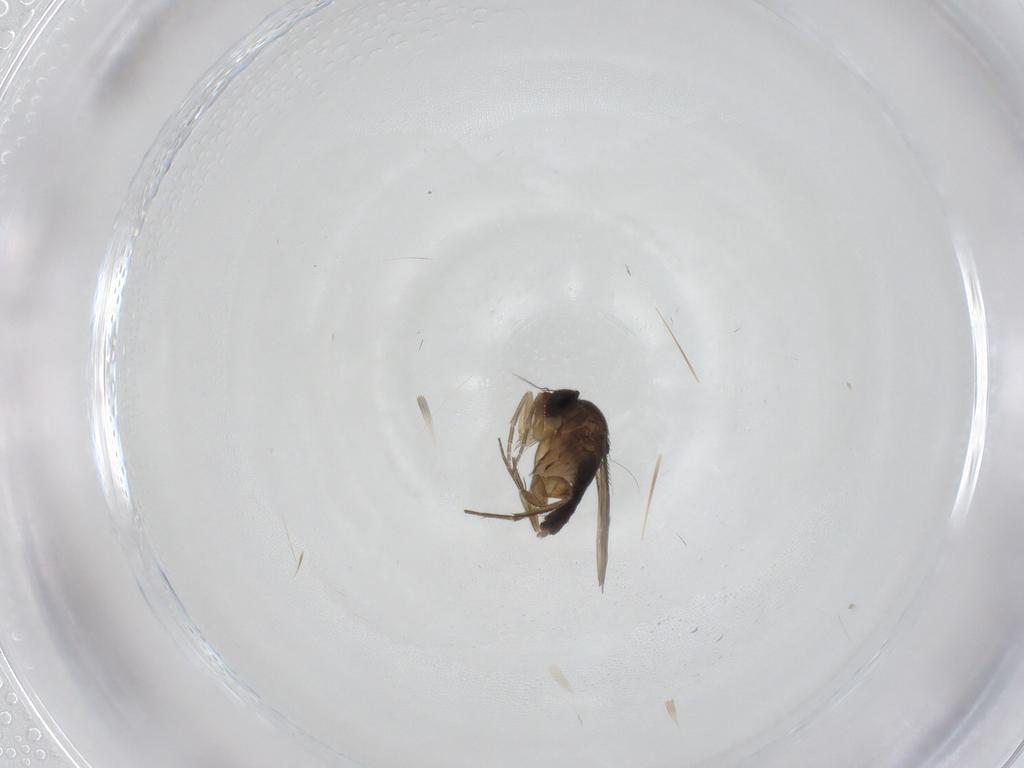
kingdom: Animalia
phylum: Arthropoda
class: Insecta
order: Diptera
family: Phoridae
